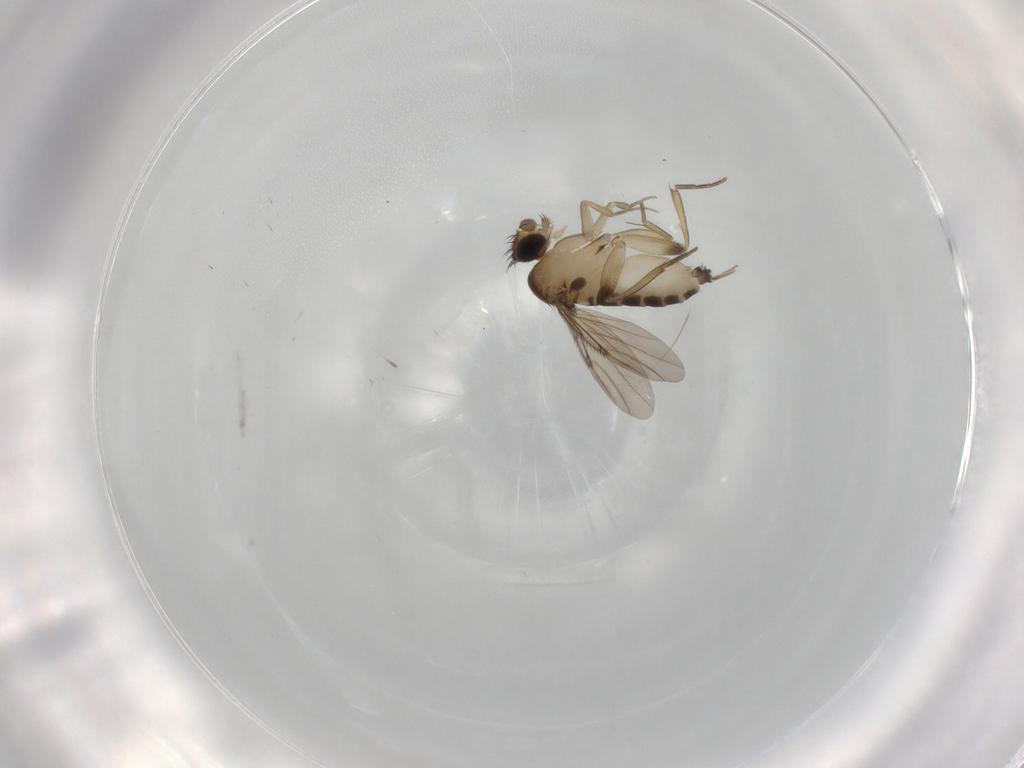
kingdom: Animalia
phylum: Arthropoda
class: Insecta
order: Diptera
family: Phoridae
